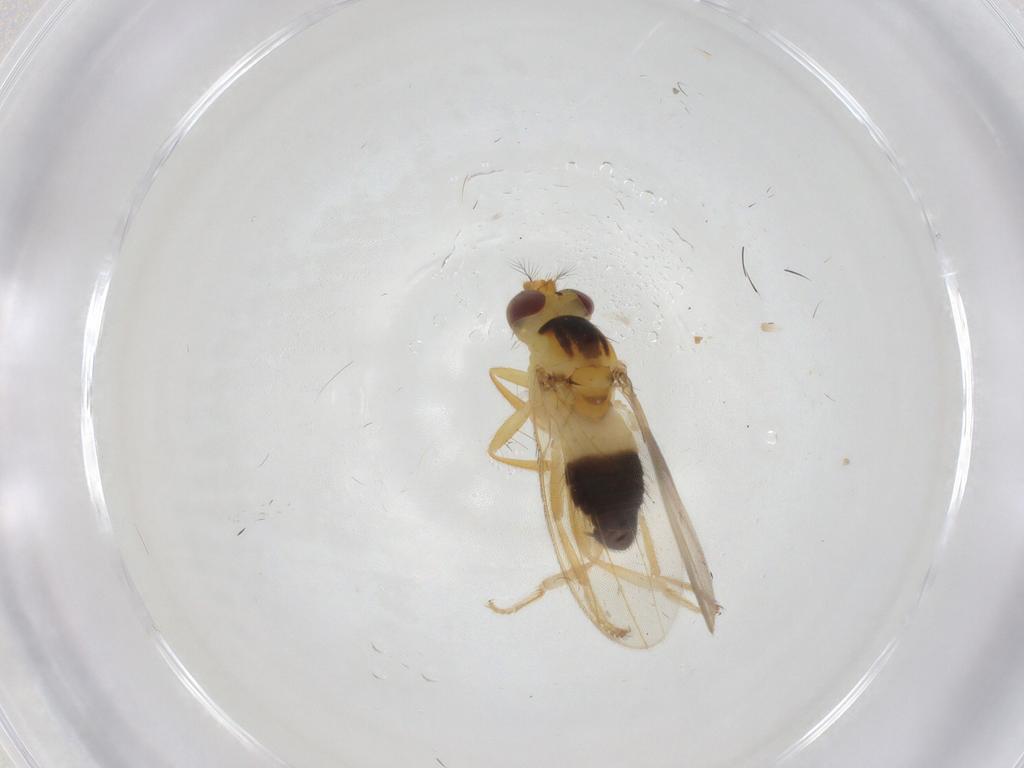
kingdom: Animalia
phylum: Arthropoda
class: Insecta
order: Diptera
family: Periscelididae
